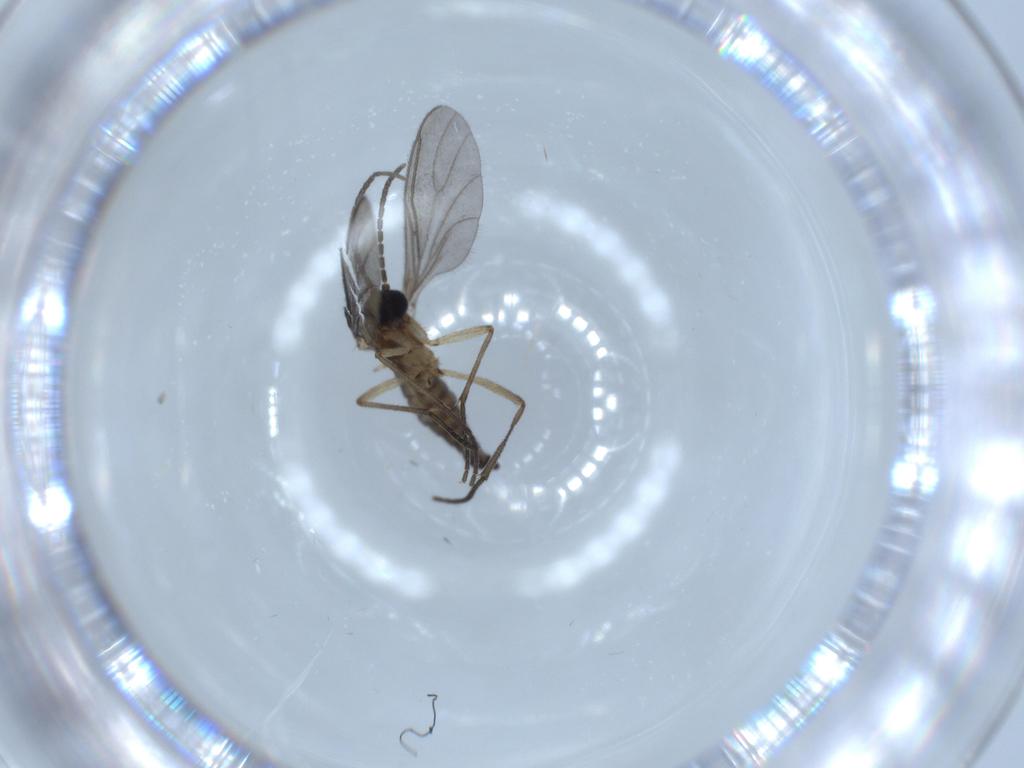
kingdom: Animalia
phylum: Arthropoda
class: Insecta
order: Diptera
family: Sciaridae
